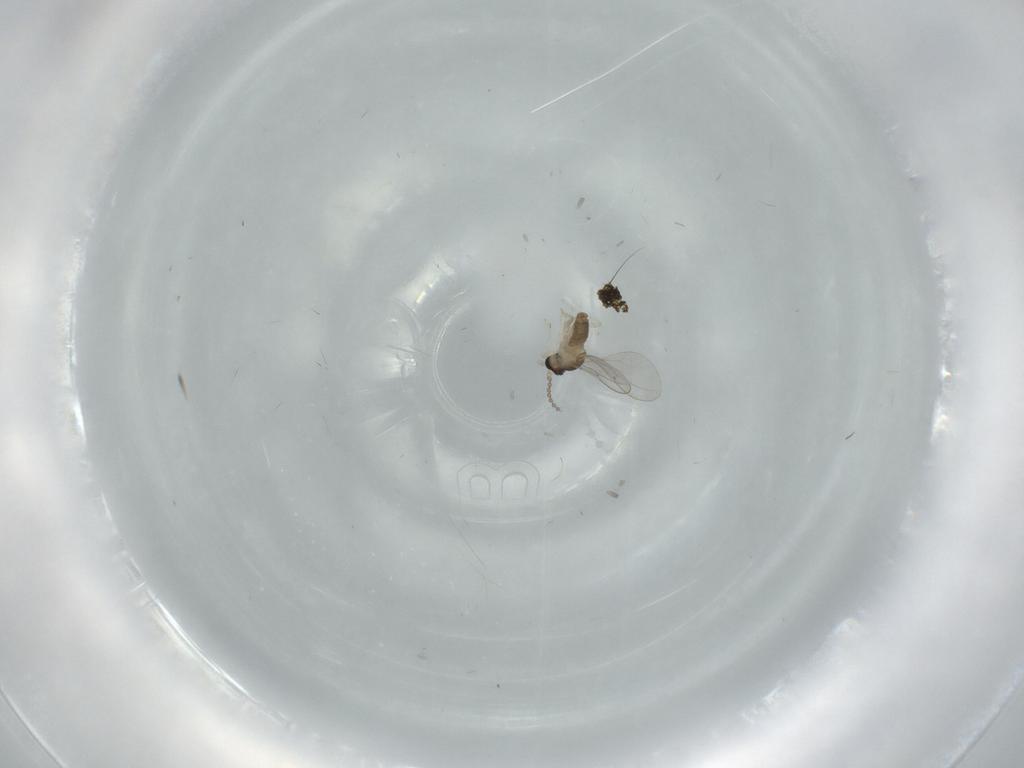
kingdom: Animalia
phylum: Arthropoda
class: Insecta
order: Diptera
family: Cecidomyiidae
